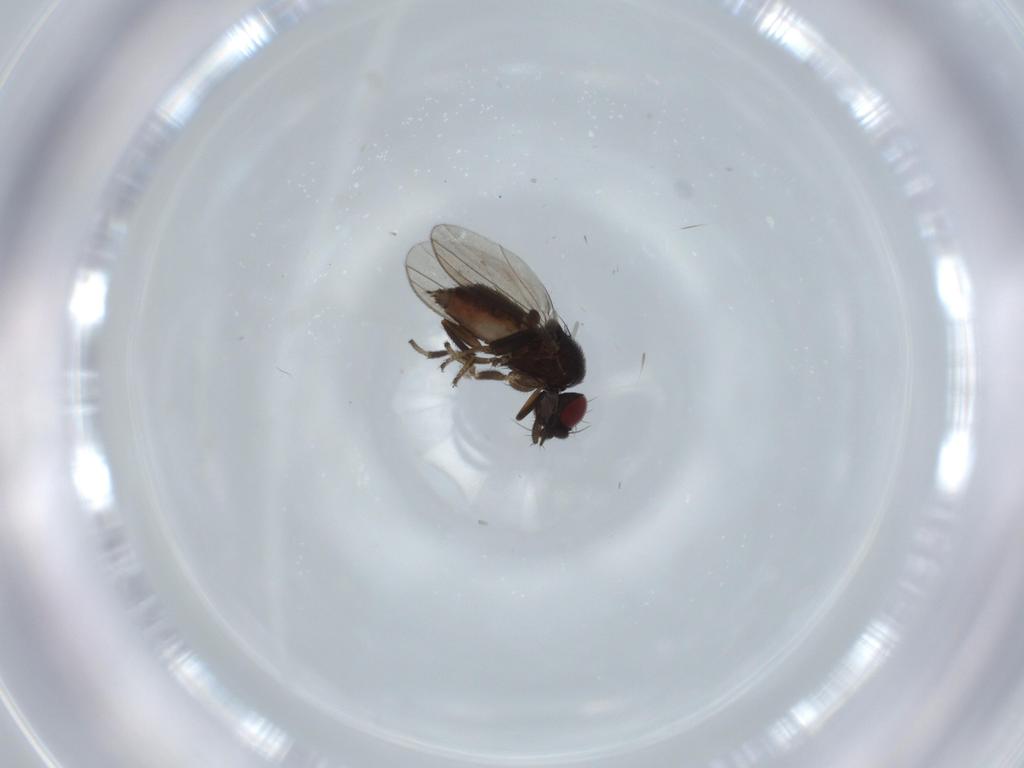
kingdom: Animalia
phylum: Arthropoda
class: Insecta
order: Diptera
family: Milichiidae
